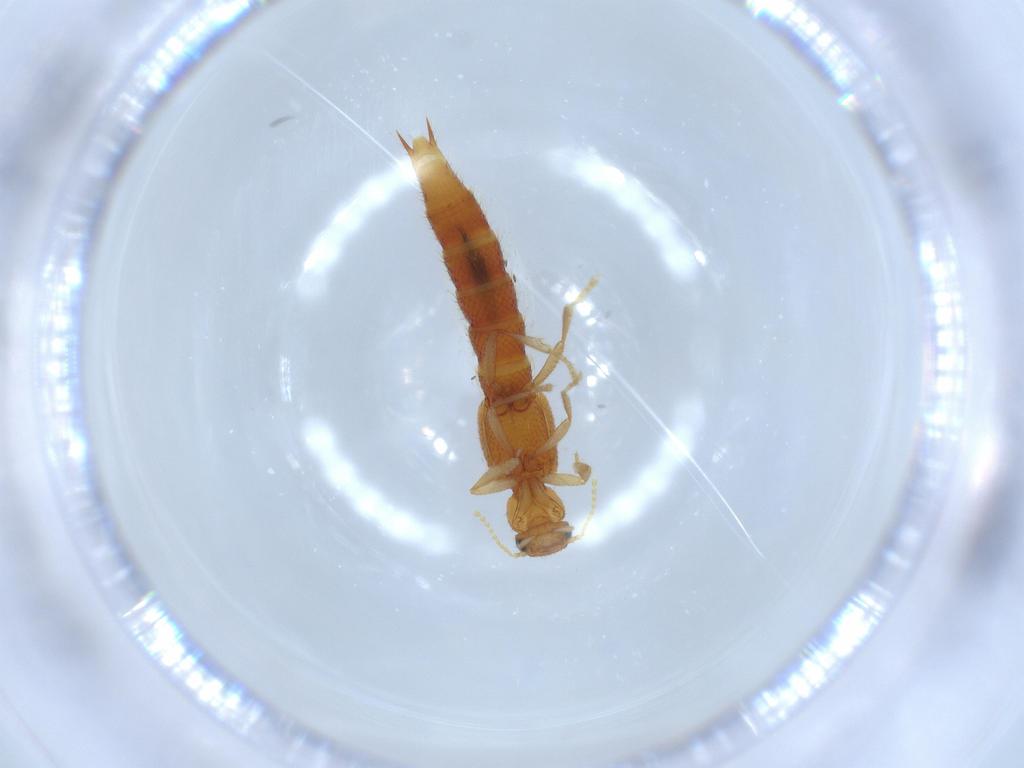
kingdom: Animalia
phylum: Arthropoda
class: Insecta
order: Coleoptera
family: Staphylinidae
